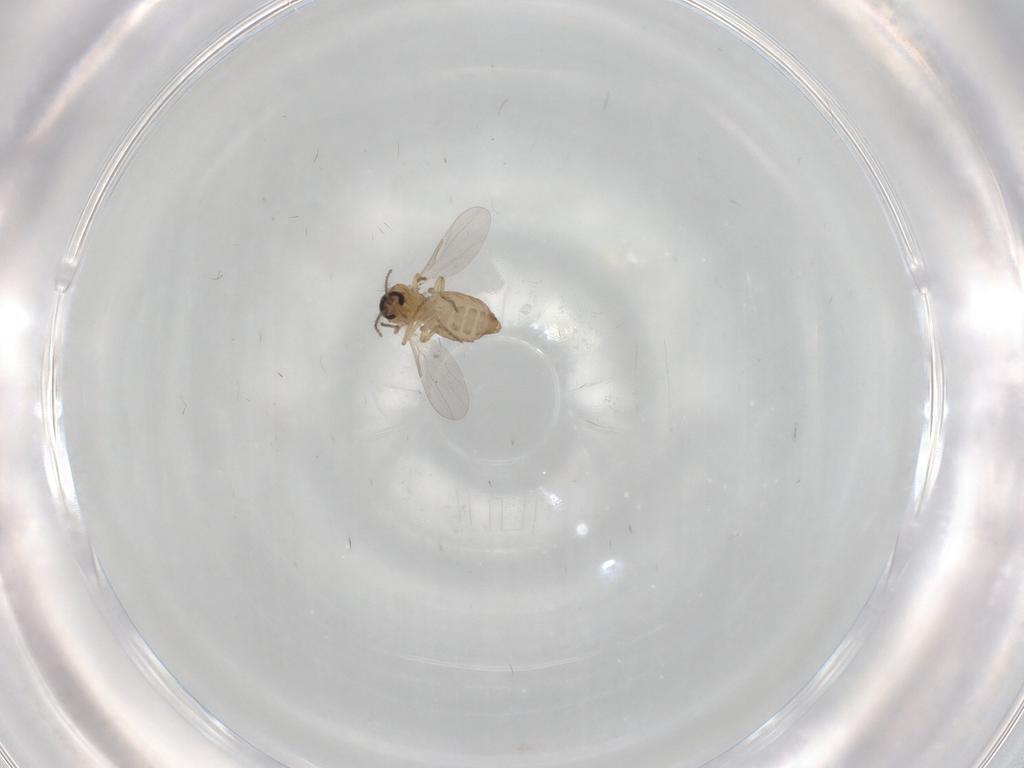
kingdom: Animalia
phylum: Arthropoda
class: Insecta
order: Diptera
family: Ceratopogonidae
